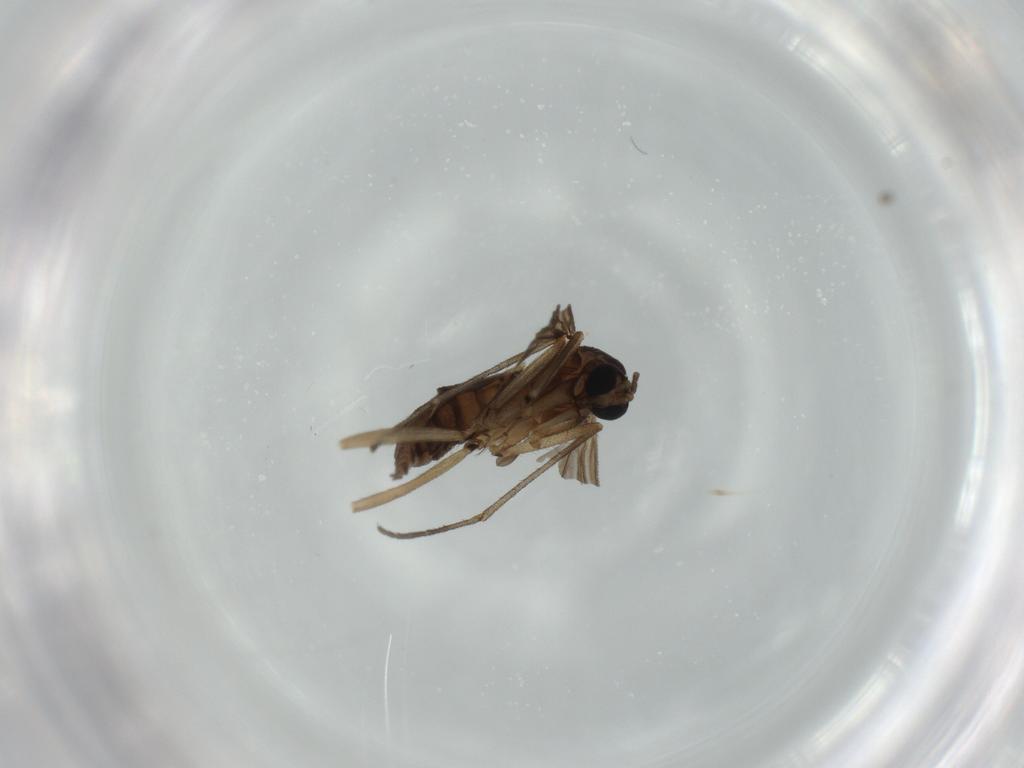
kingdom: Animalia
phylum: Arthropoda
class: Insecta
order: Diptera
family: Sciaridae
